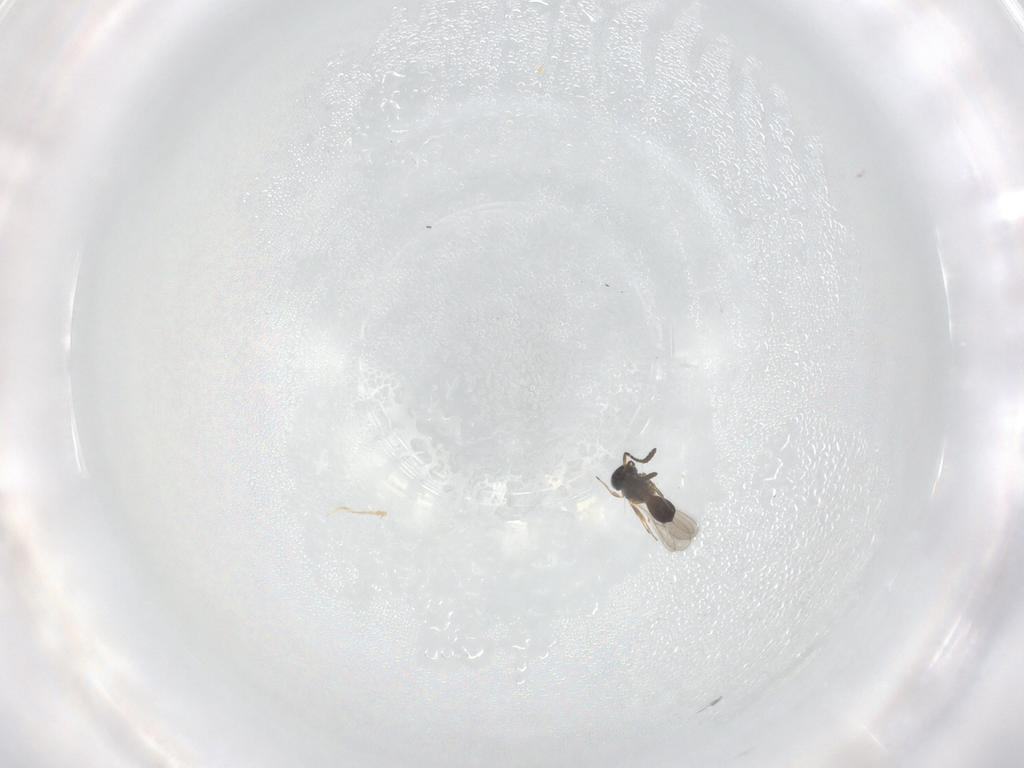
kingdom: Animalia
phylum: Arthropoda
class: Insecta
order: Hymenoptera
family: Scelionidae
